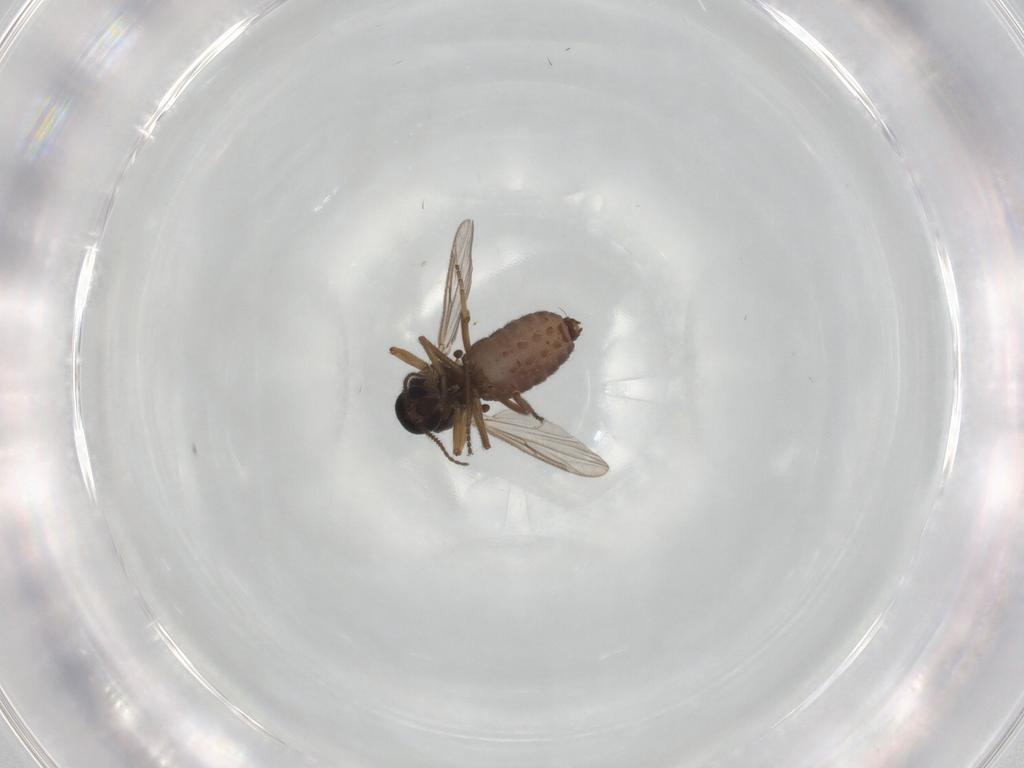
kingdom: Animalia
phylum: Arthropoda
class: Insecta
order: Diptera
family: Ceratopogonidae
